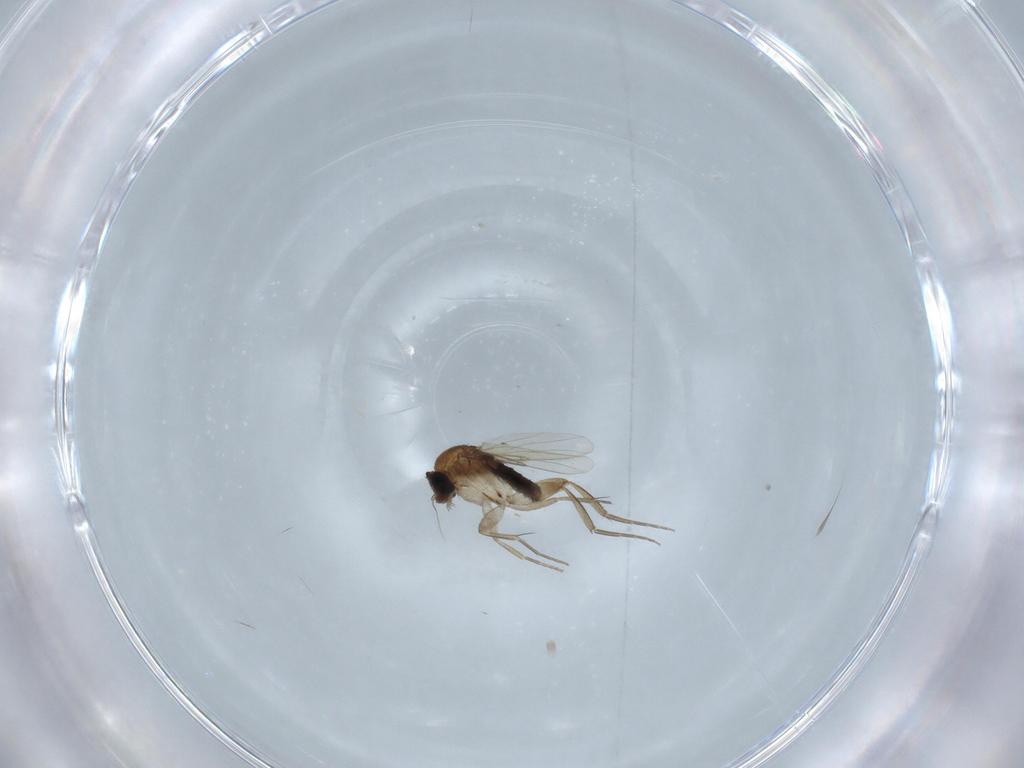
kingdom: Animalia
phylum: Arthropoda
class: Insecta
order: Diptera
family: Phoridae
